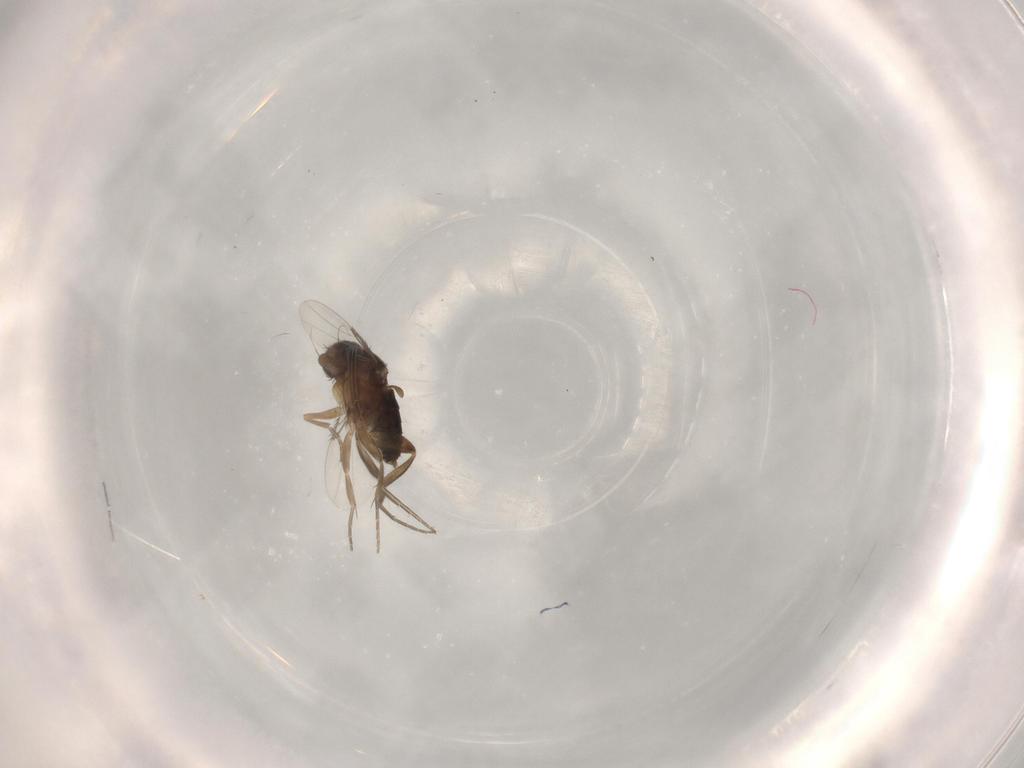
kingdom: Animalia
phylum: Arthropoda
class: Insecta
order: Diptera
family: Phoridae
